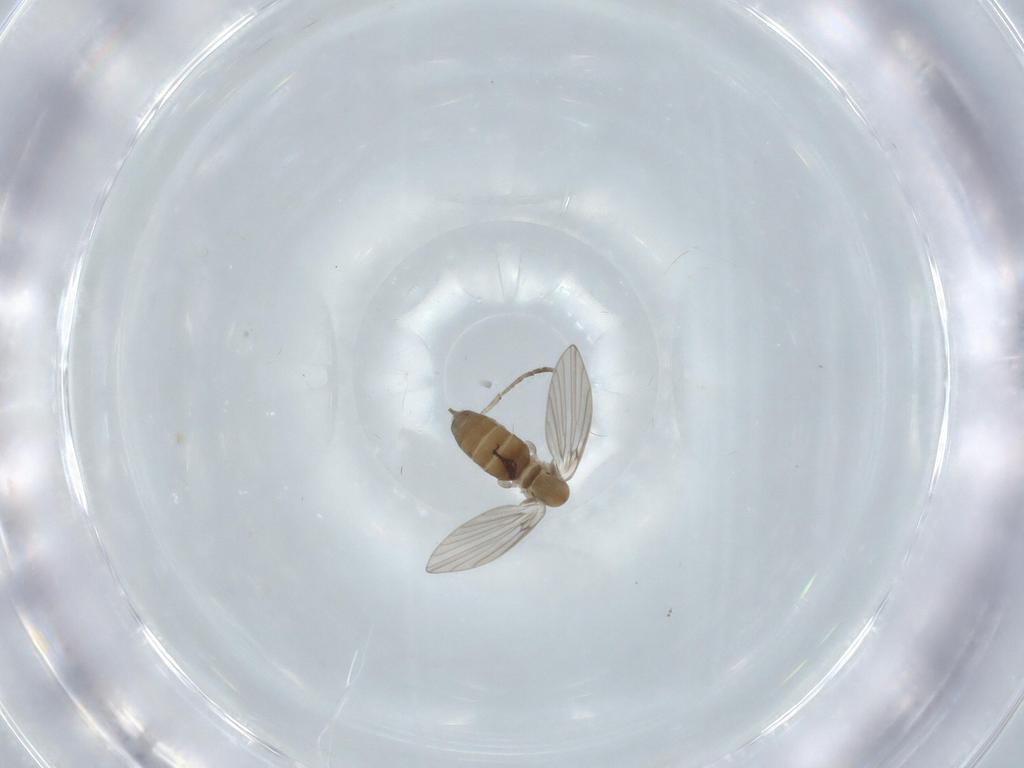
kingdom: Animalia
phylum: Arthropoda
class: Insecta
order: Diptera
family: Psychodidae
